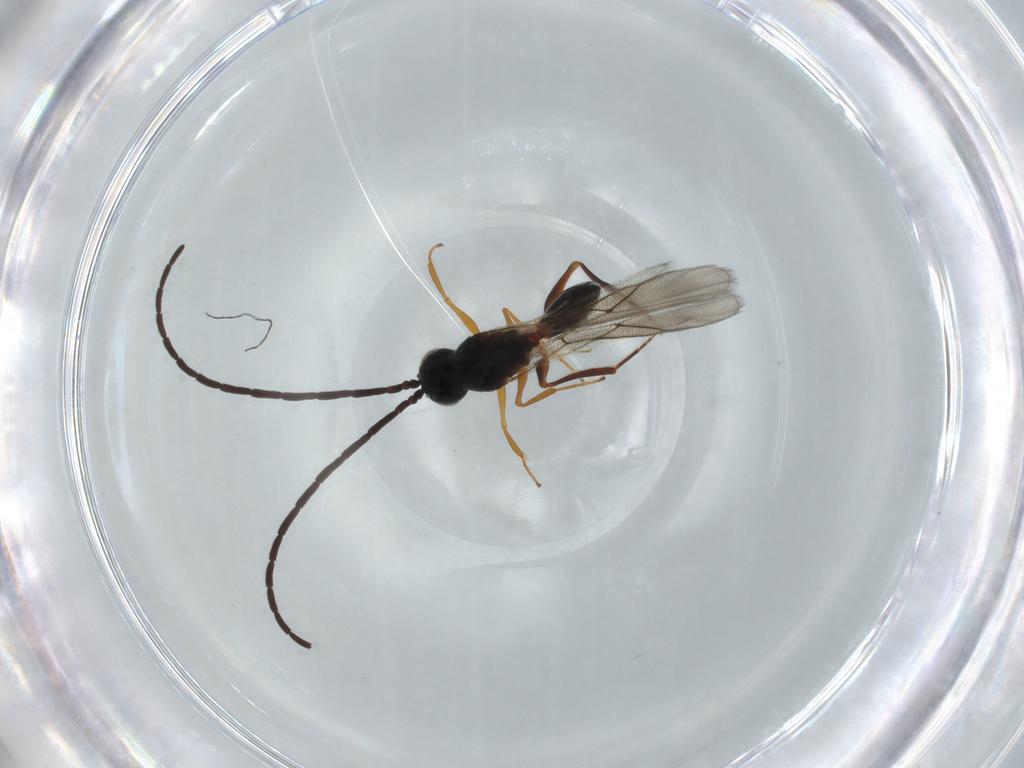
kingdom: Animalia
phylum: Arthropoda
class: Insecta
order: Hymenoptera
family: Figitidae
